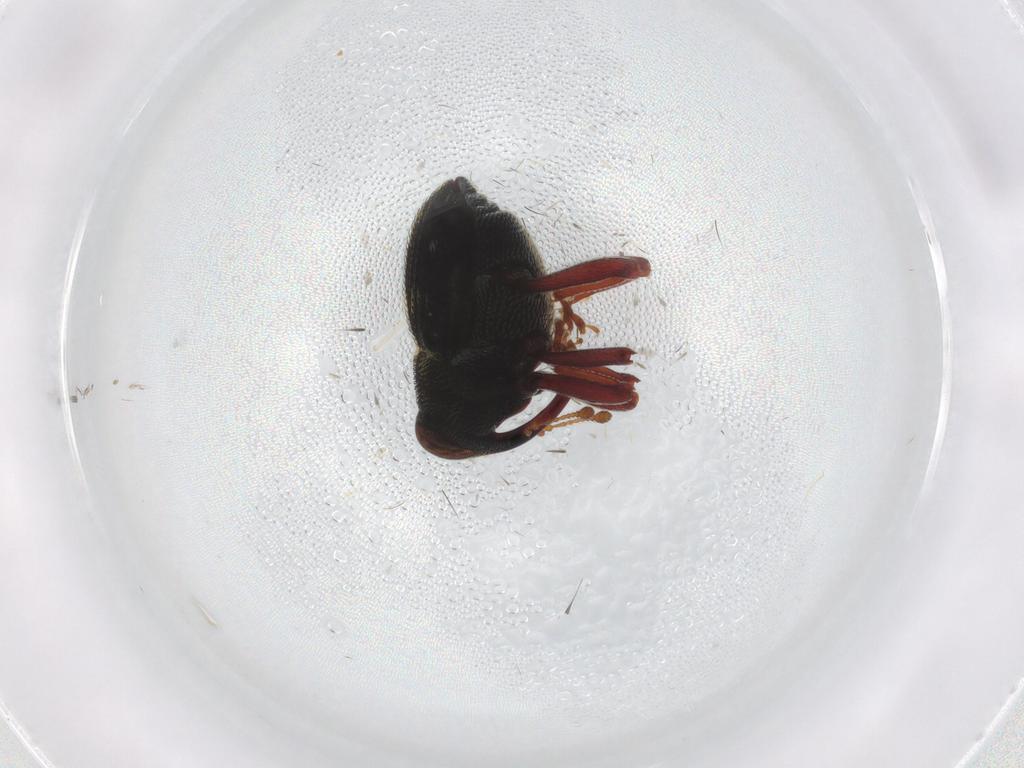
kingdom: Animalia
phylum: Arthropoda
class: Insecta
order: Coleoptera
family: Curculionidae
